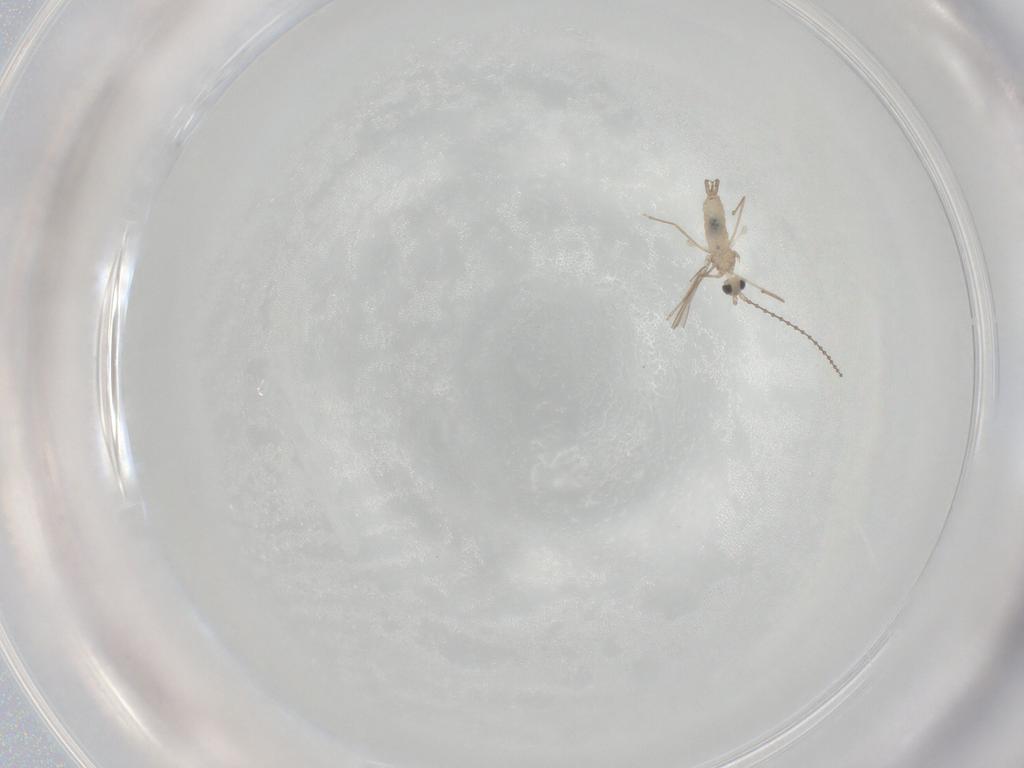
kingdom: Animalia
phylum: Arthropoda
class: Insecta
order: Diptera
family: Cecidomyiidae
